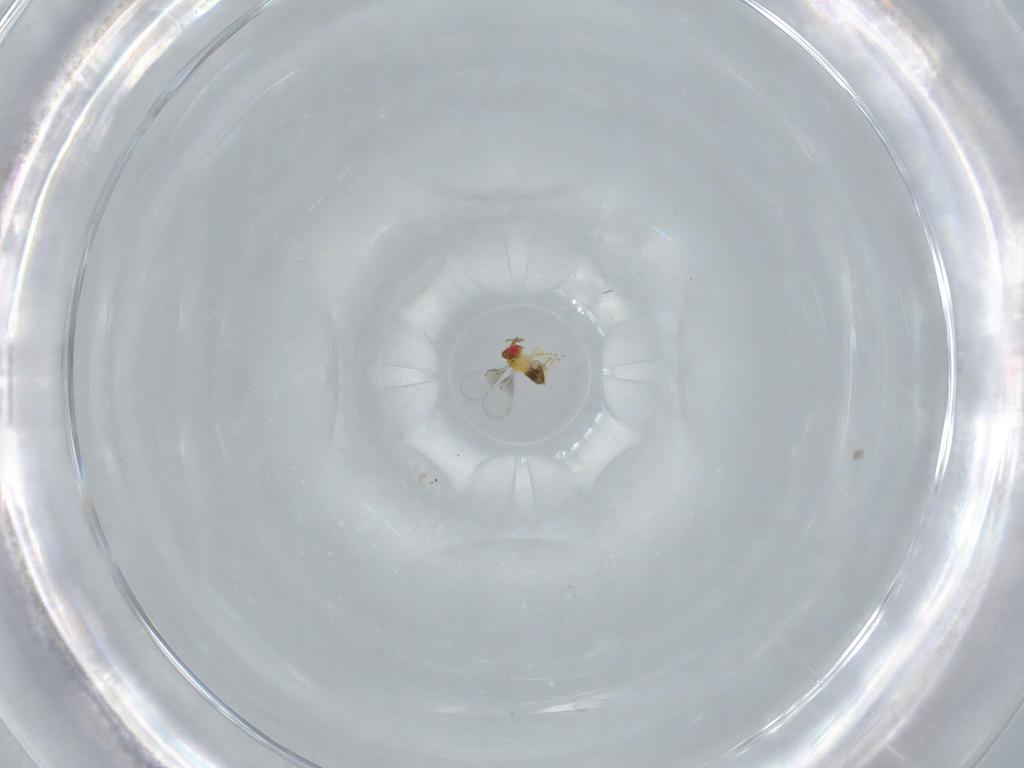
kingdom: Animalia
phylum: Arthropoda
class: Insecta
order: Hymenoptera
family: Trichogrammatidae
